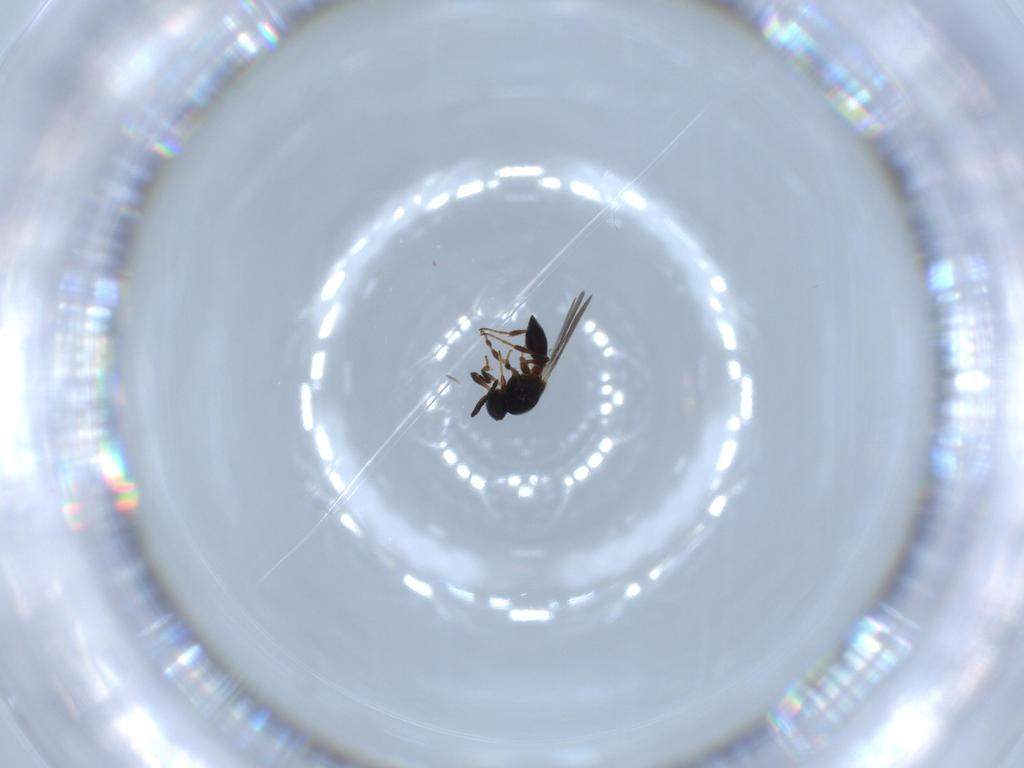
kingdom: Animalia
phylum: Arthropoda
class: Insecta
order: Hymenoptera
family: Platygastridae
